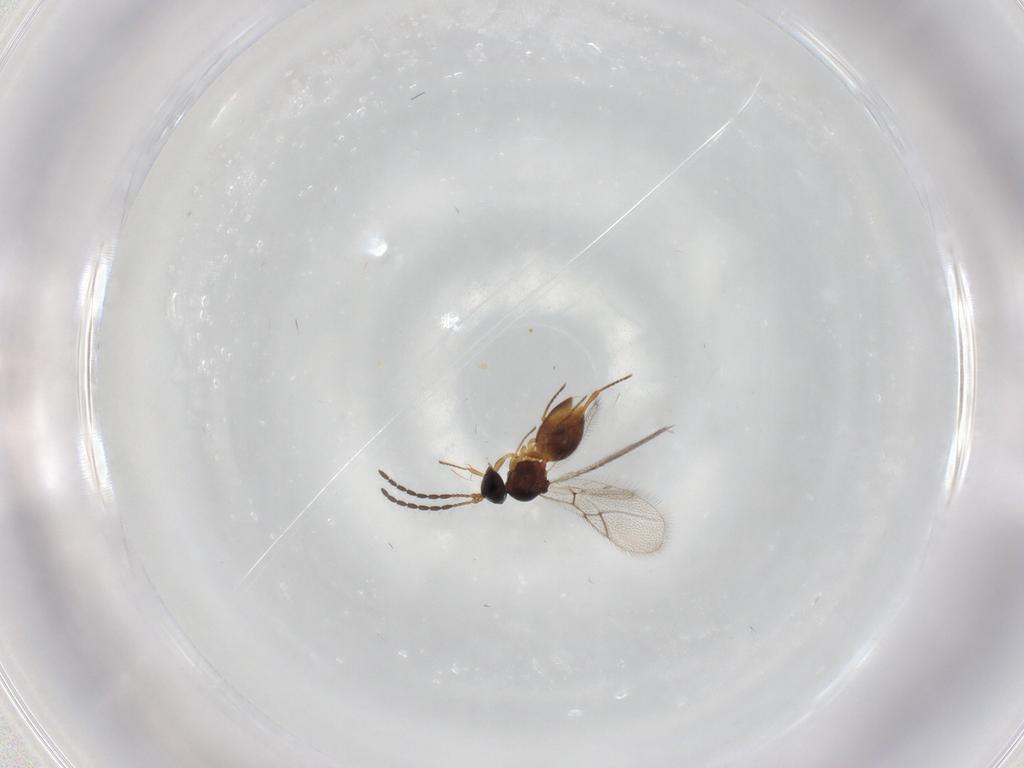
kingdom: Animalia
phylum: Arthropoda
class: Insecta
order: Hymenoptera
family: Figitidae
